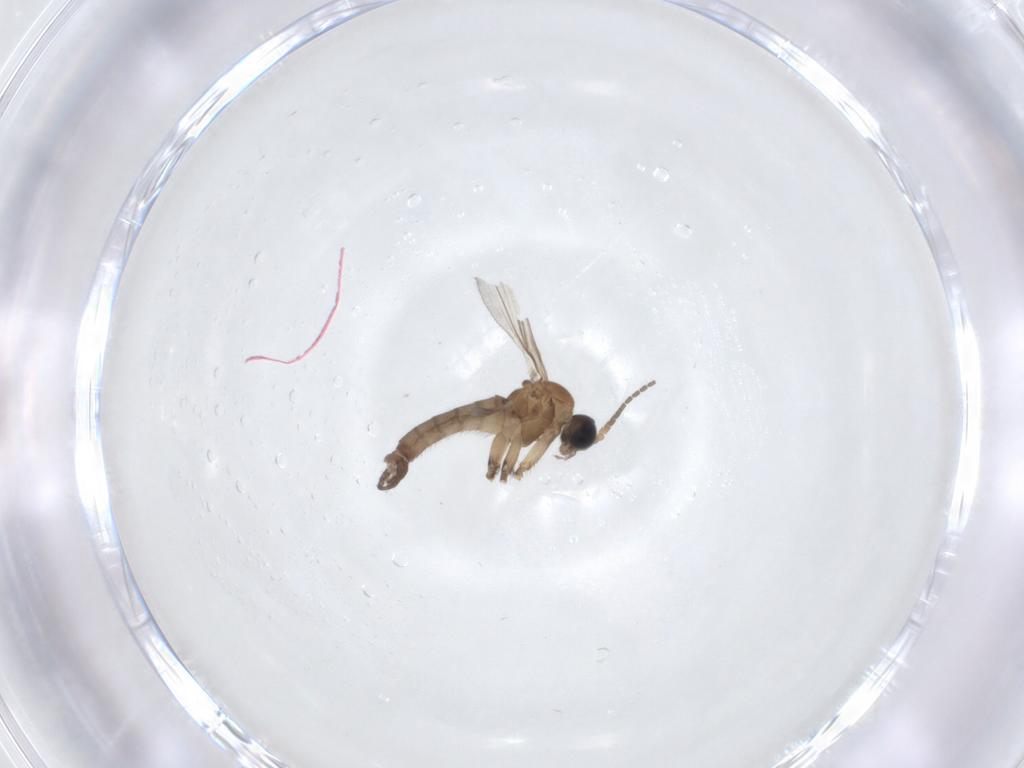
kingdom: Animalia
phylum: Arthropoda
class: Insecta
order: Diptera
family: Sciaridae
